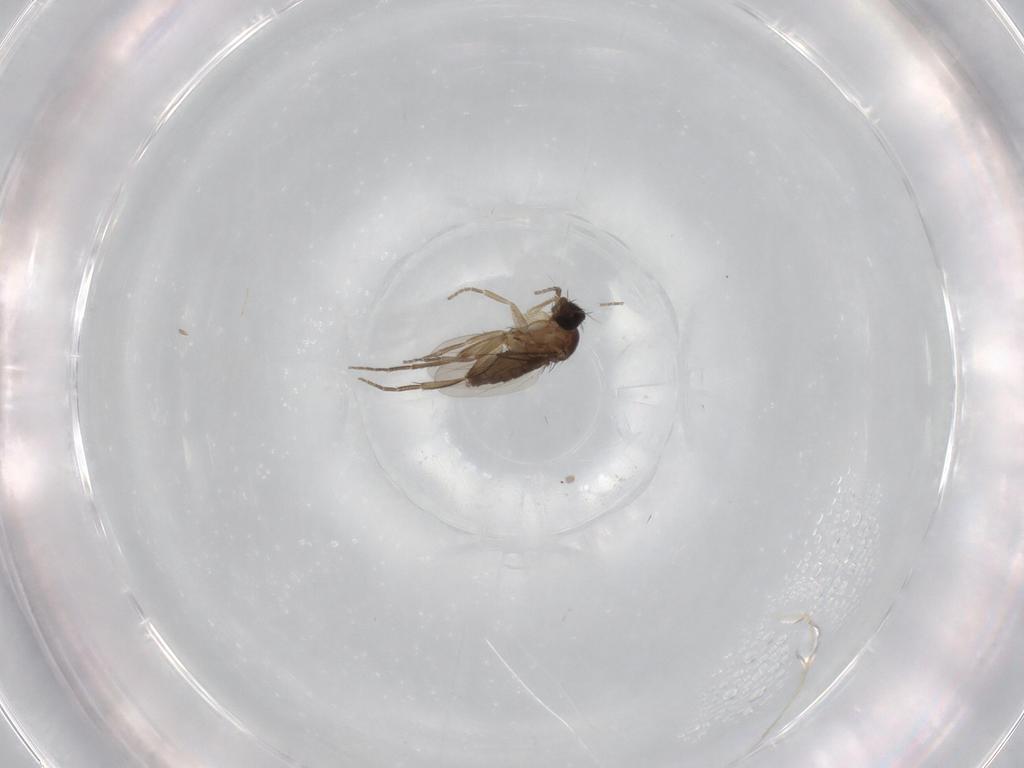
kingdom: Animalia
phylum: Arthropoda
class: Insecta
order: Diptera
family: Phoridae
